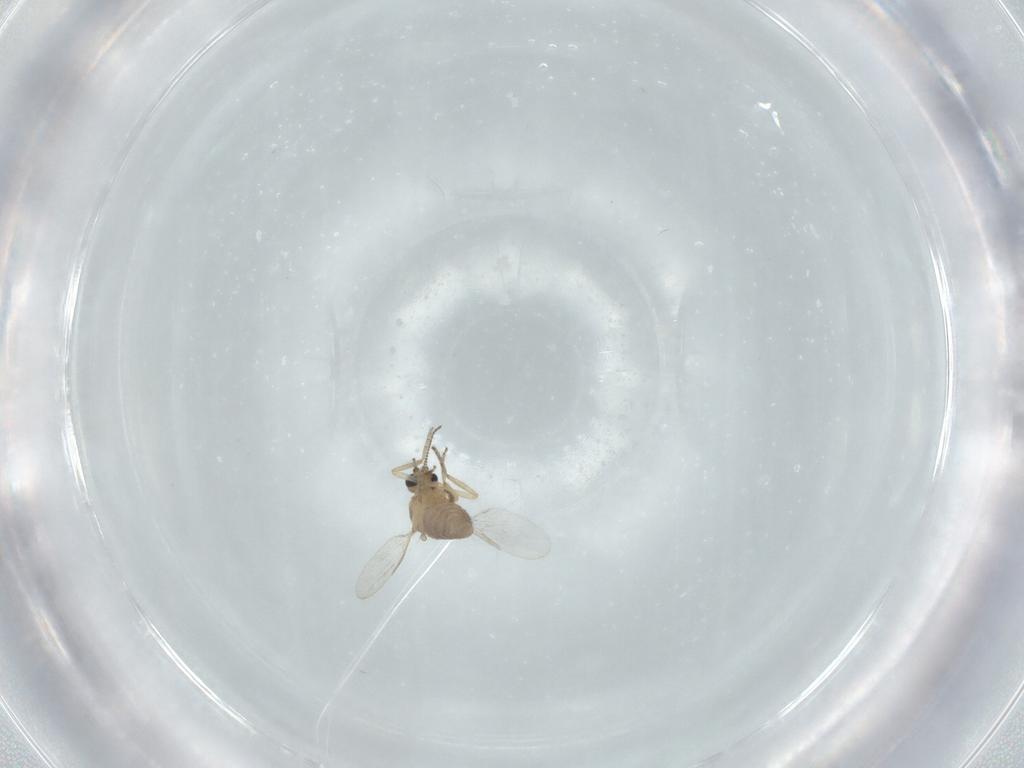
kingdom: Animalia
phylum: Arthropoda
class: Insecta
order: Diptera
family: Ceratopogonidae
